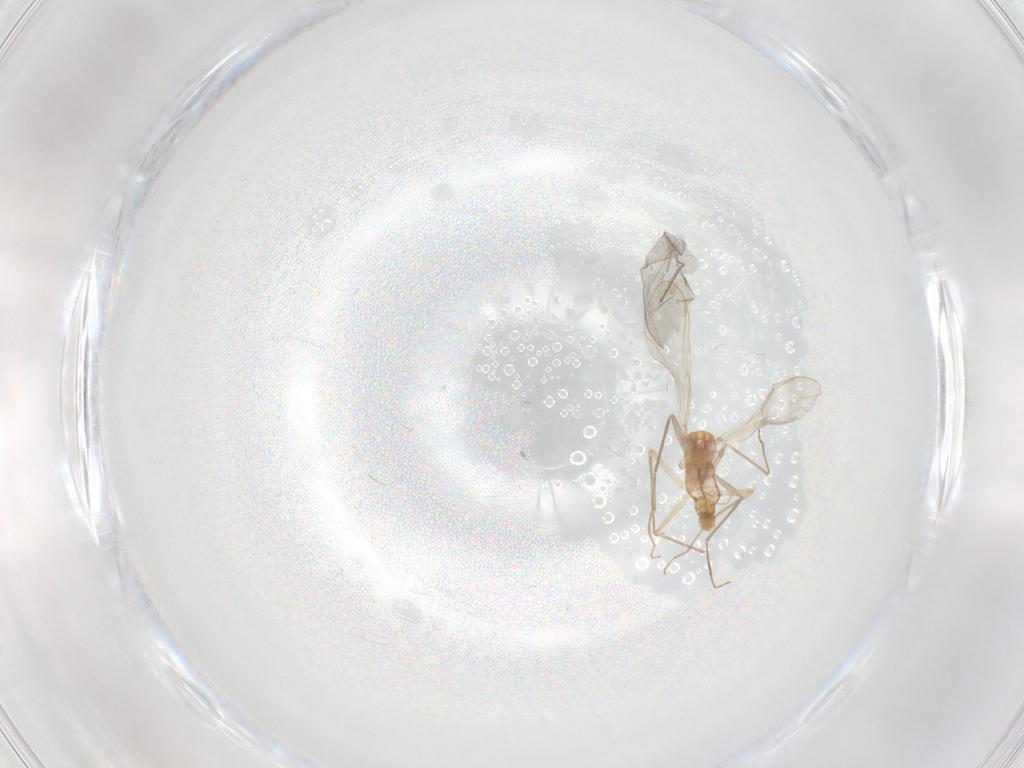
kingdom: Animalia
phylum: Arthropoda
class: Insecta
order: Diptera
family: Chironomidae
